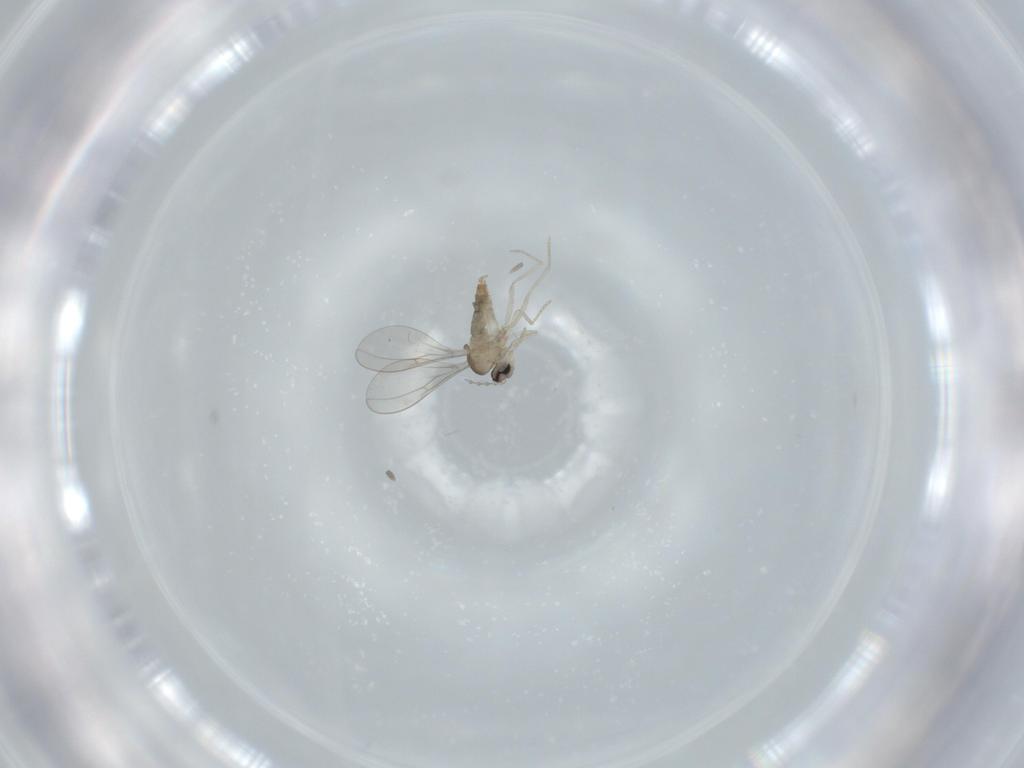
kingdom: Animalia
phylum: Arthropoda
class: Insecta
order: Diptera
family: Cecidomyiidae
